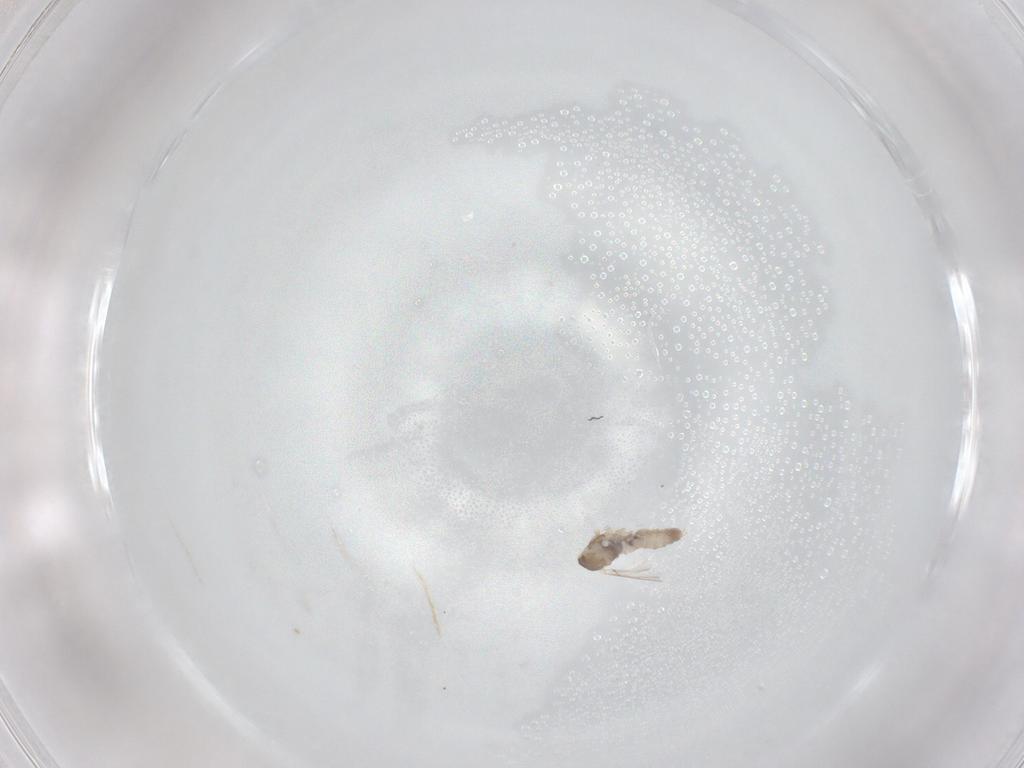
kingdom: Animalia
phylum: Arthropoda
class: Insecta
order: Diptera
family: Cecidomyiidae
